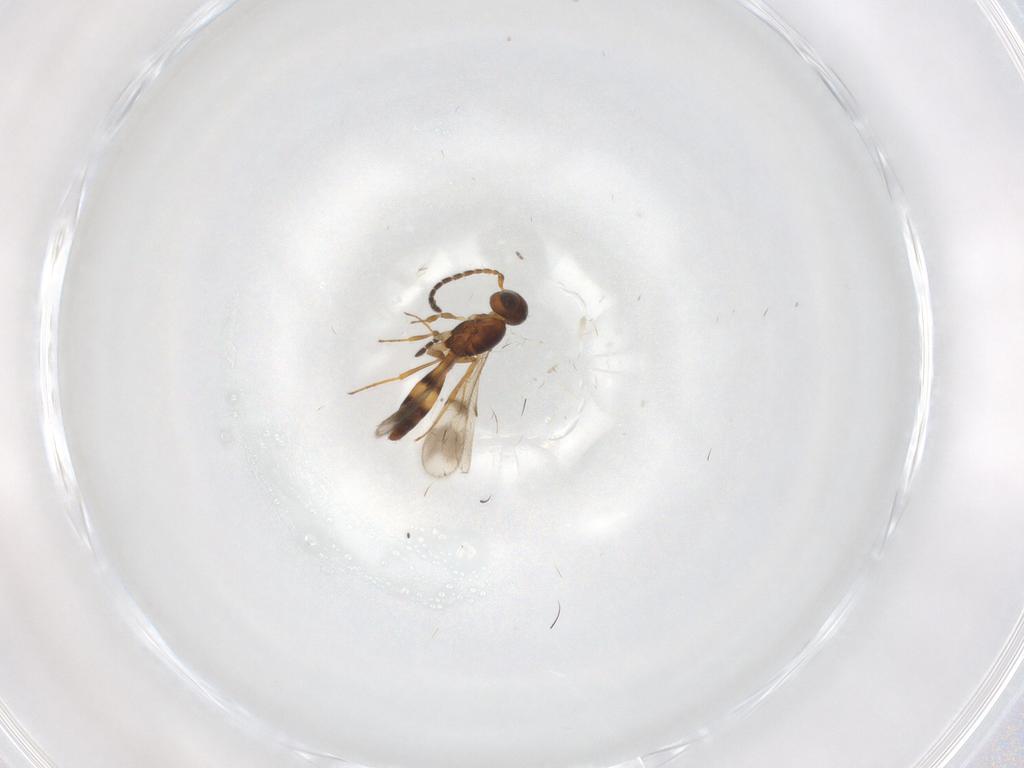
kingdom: Animalia
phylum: Arthropoda
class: Insecta
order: Hymenoptera
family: Scelionidae
